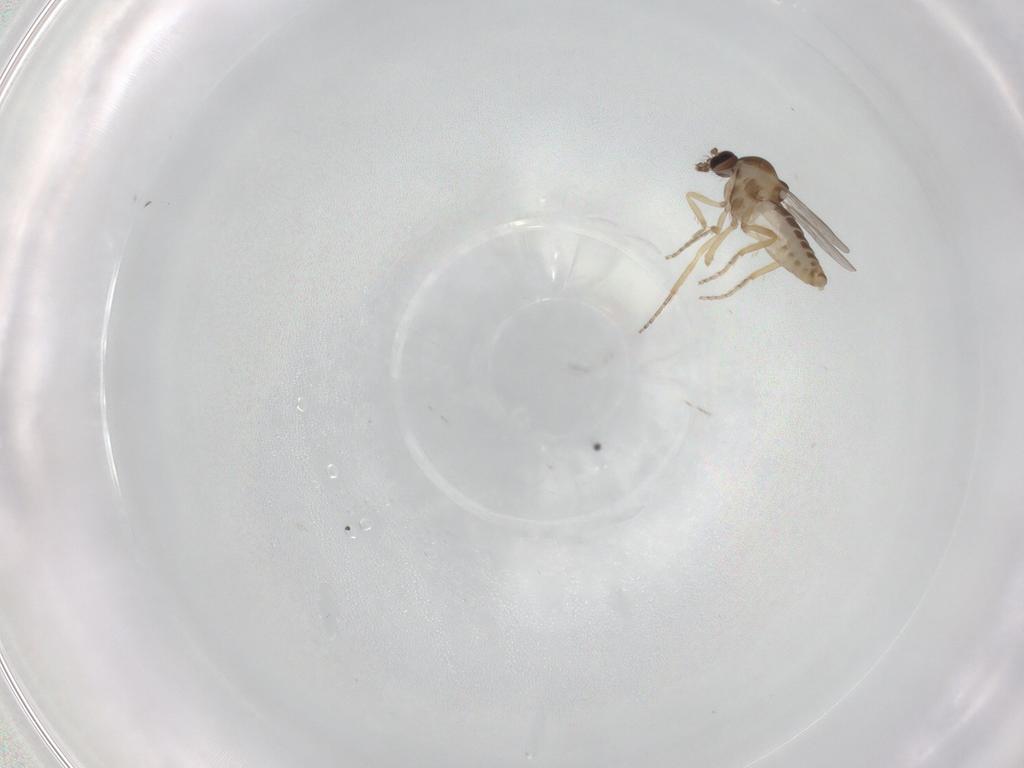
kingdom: Animalia
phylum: Arthropoda
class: Insecta
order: Diptera
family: Ceratopogonidae
